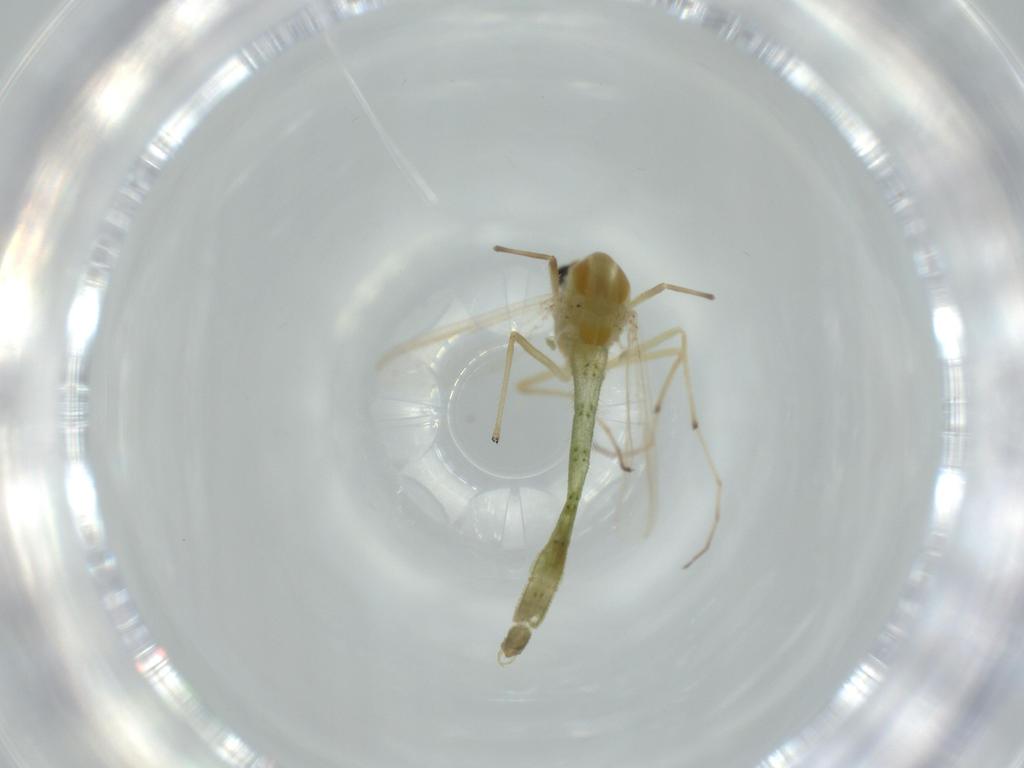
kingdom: Animalia
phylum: Arthropoda
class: Insecta
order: Diptera
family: Chironomidae
